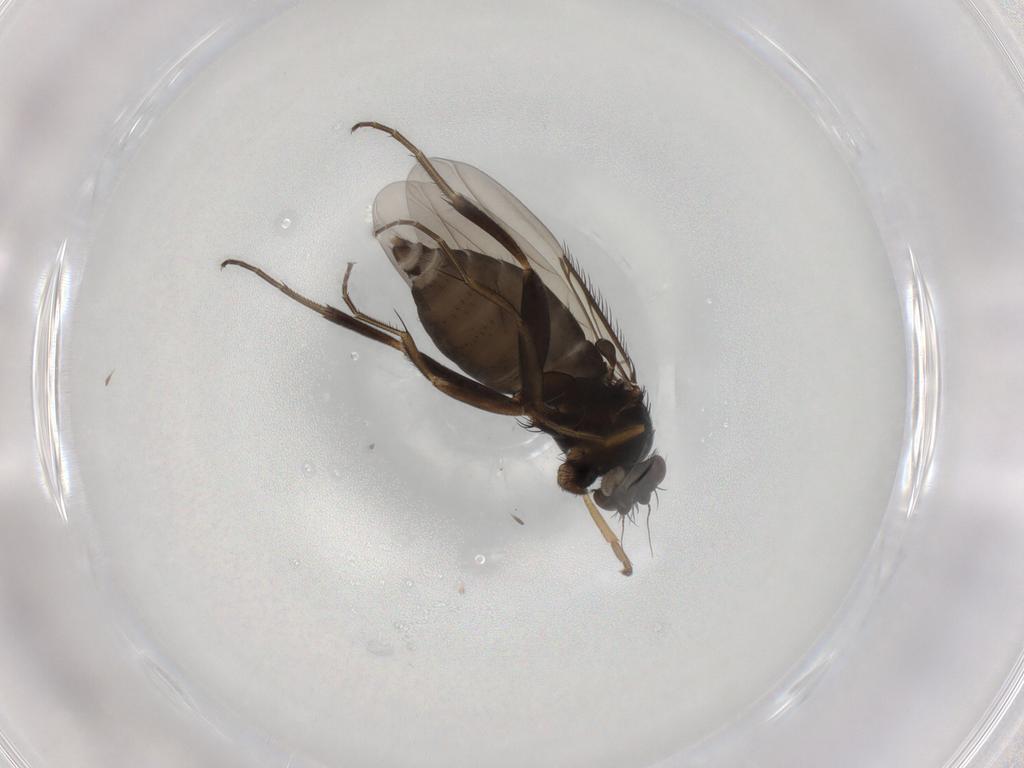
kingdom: Animalia
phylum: Arthropoda
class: Insecta
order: Diptera
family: Phoridae
